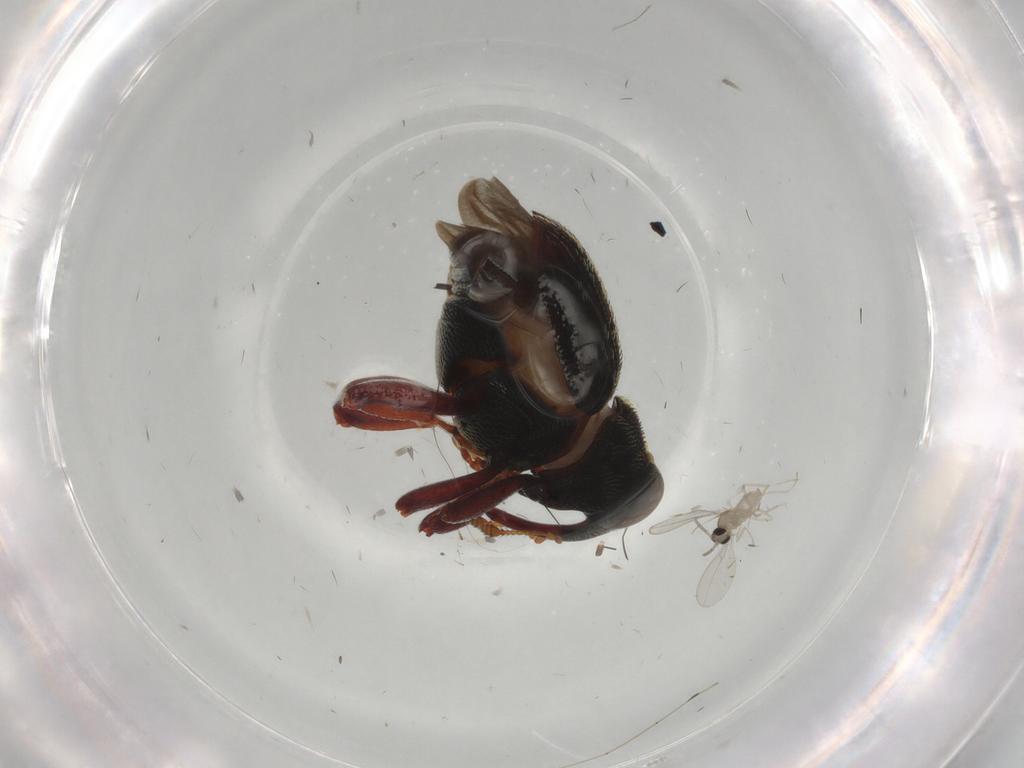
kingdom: Animalia
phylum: Arthropoda
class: Insecta
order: Coleoptera
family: Curculionidae
